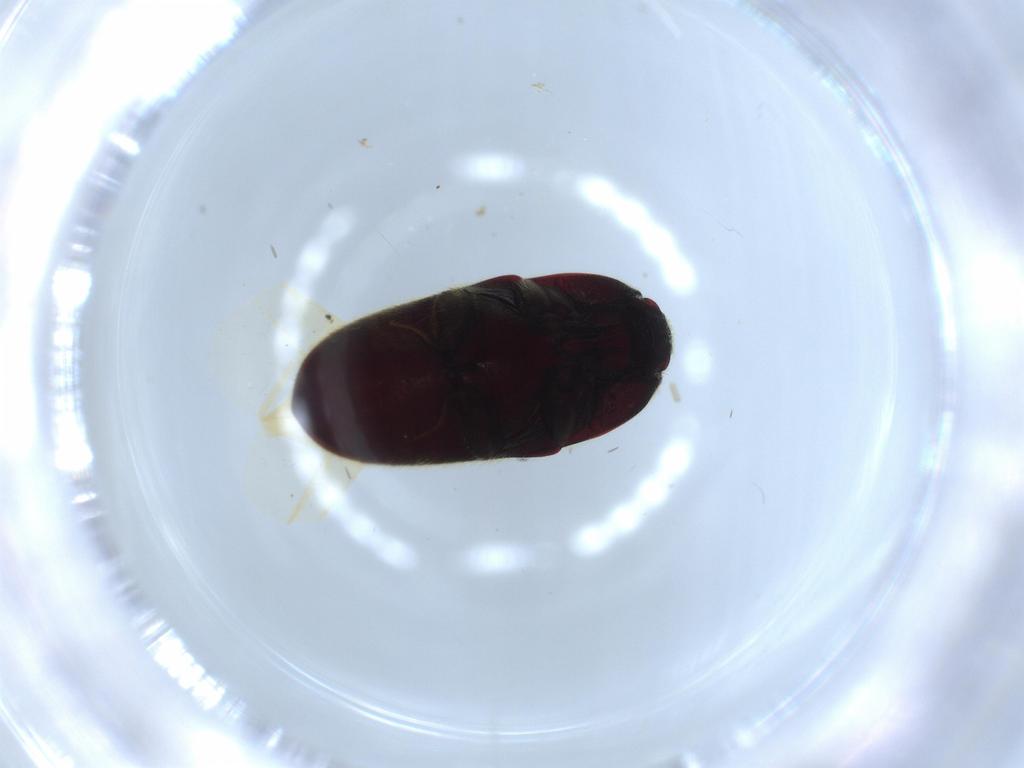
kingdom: Animalia
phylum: Arthropoda
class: Insecta
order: Coleoptera
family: Throscidae
